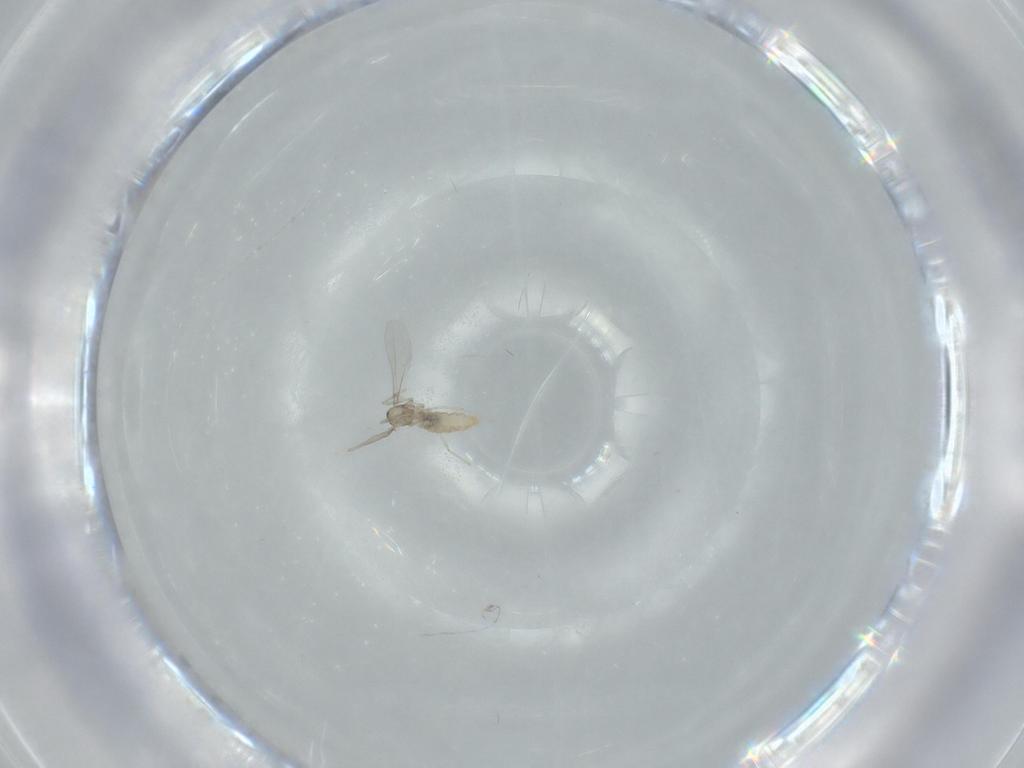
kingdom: Animalia
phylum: Arthropoda
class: Insecta
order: Diptera
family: Cecidomyiidae
